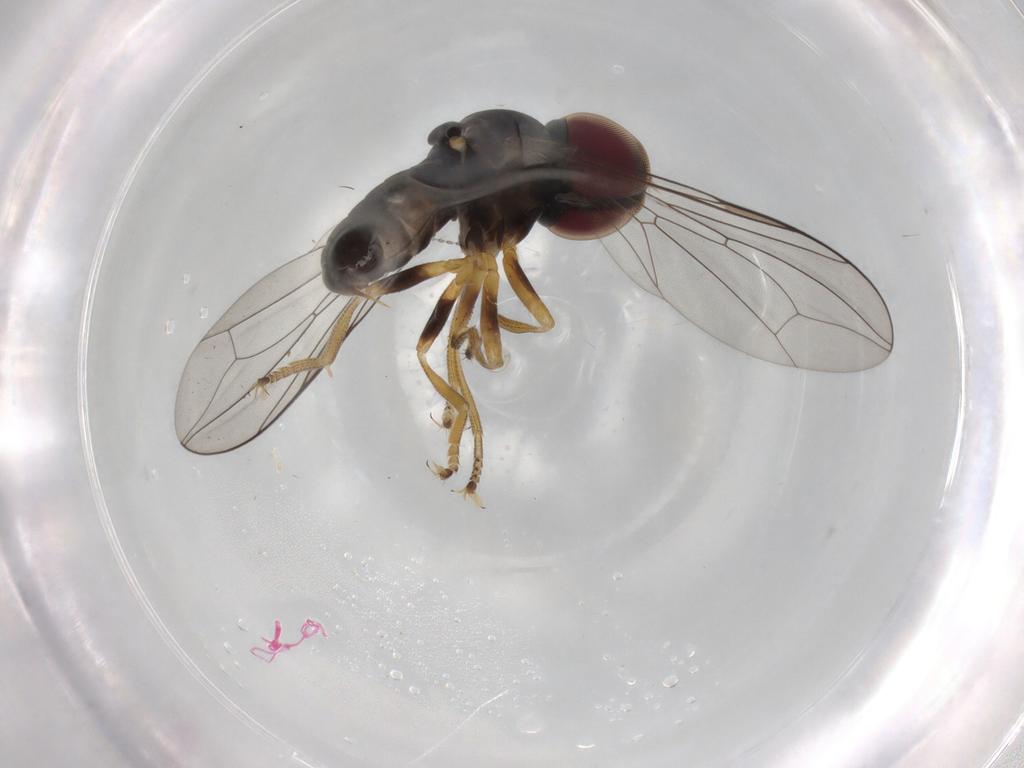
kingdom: Animalia
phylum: Arthropoda
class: Insecta
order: Diptera
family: Pipunculidae
